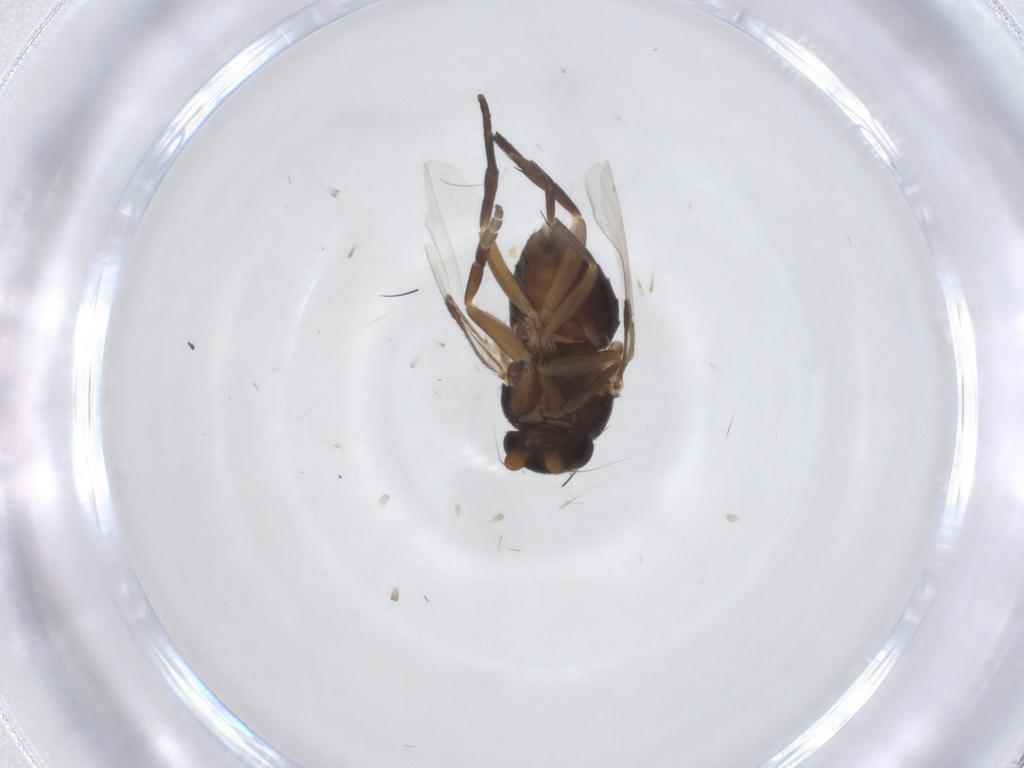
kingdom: Animalia
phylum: Arthropoda
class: Insecta
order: Diptera
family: Phoridae
